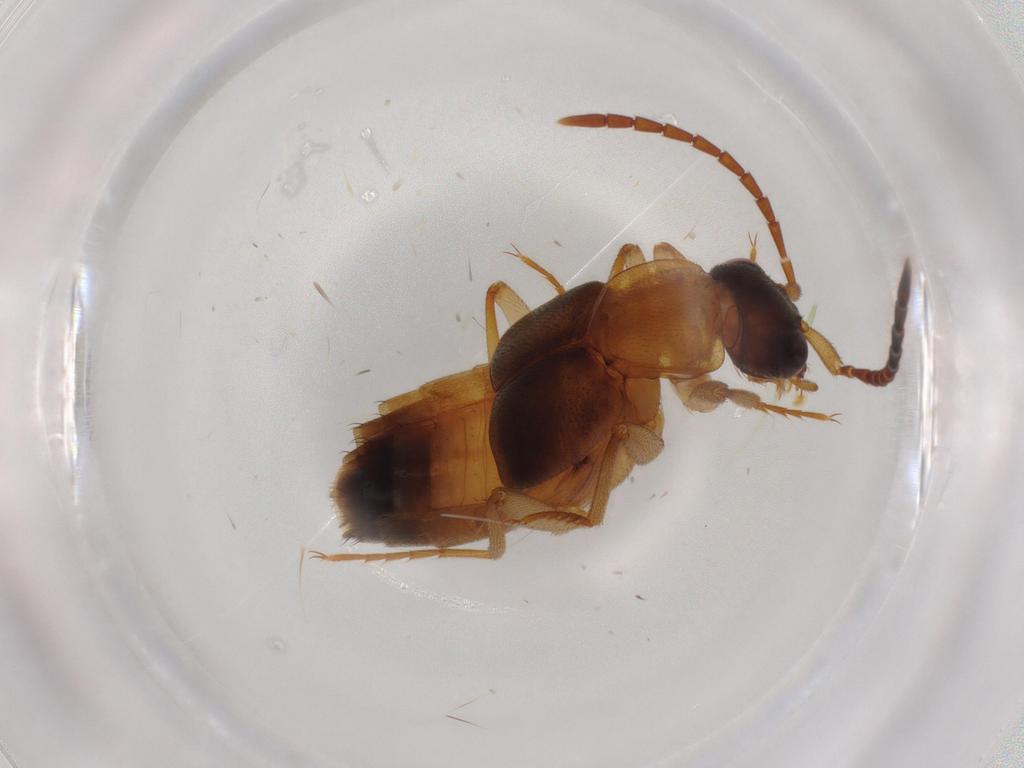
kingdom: Animalia
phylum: Arthropoda
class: Insecta
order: Coleoptera
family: Staphylinidae
